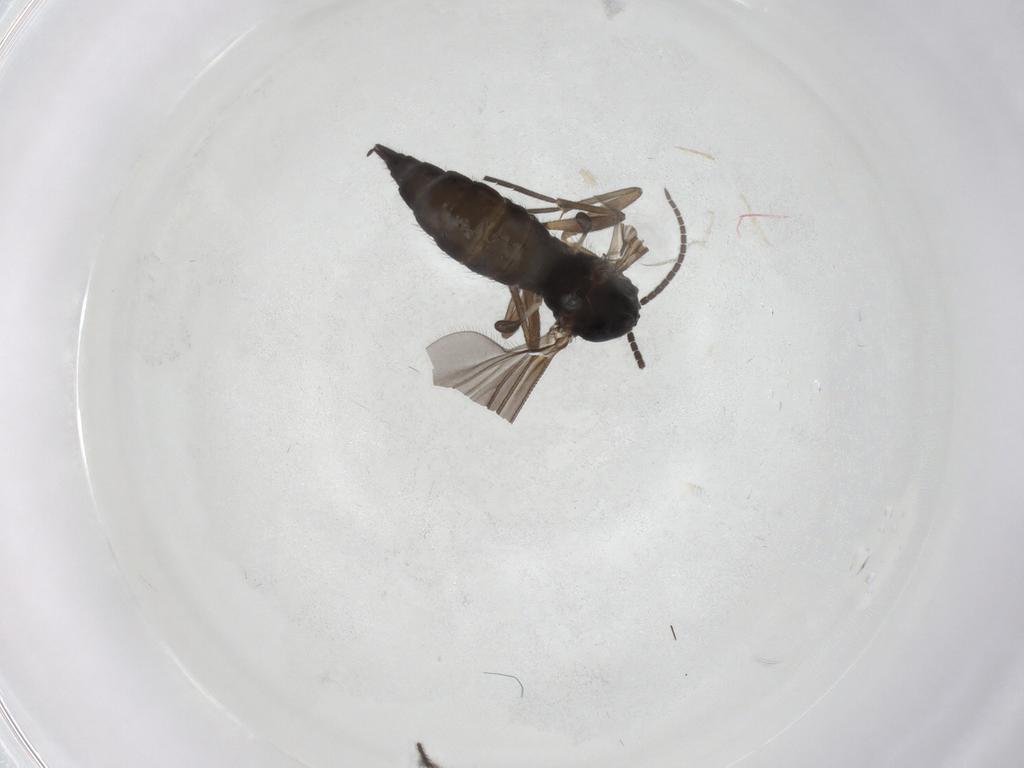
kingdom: Animalia
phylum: Arthropoda
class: Insecta
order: Diptera
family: Sciaridae
